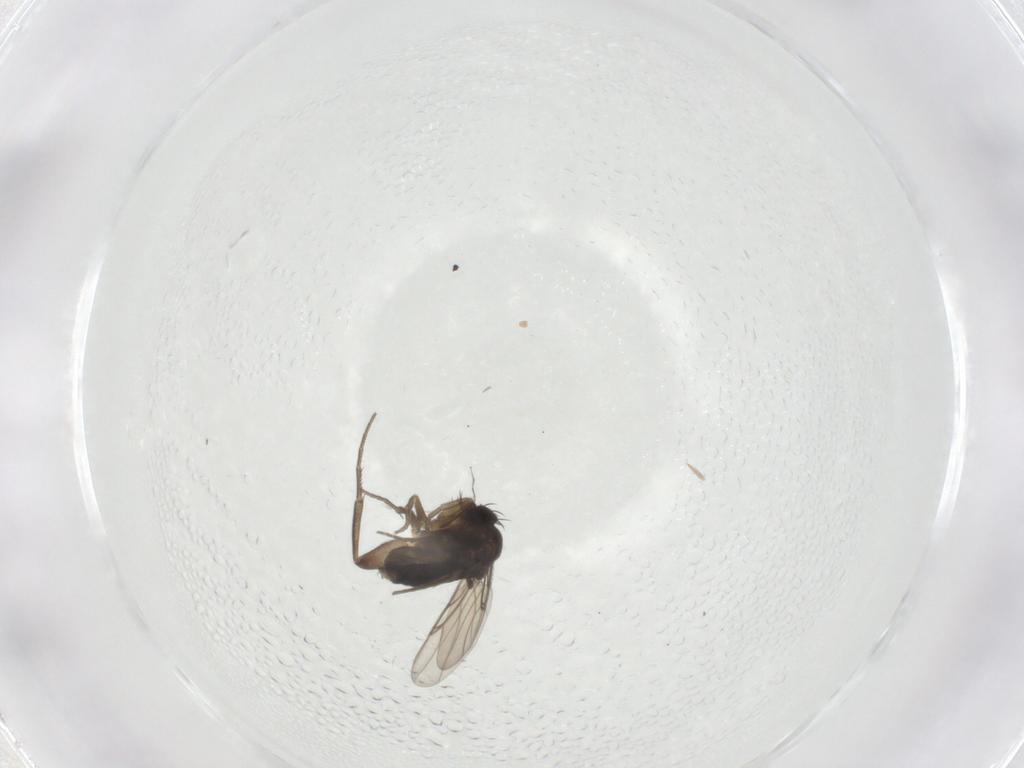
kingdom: Animalia
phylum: Arthropoda
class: Insecta
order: Diptera
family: Phoridae
